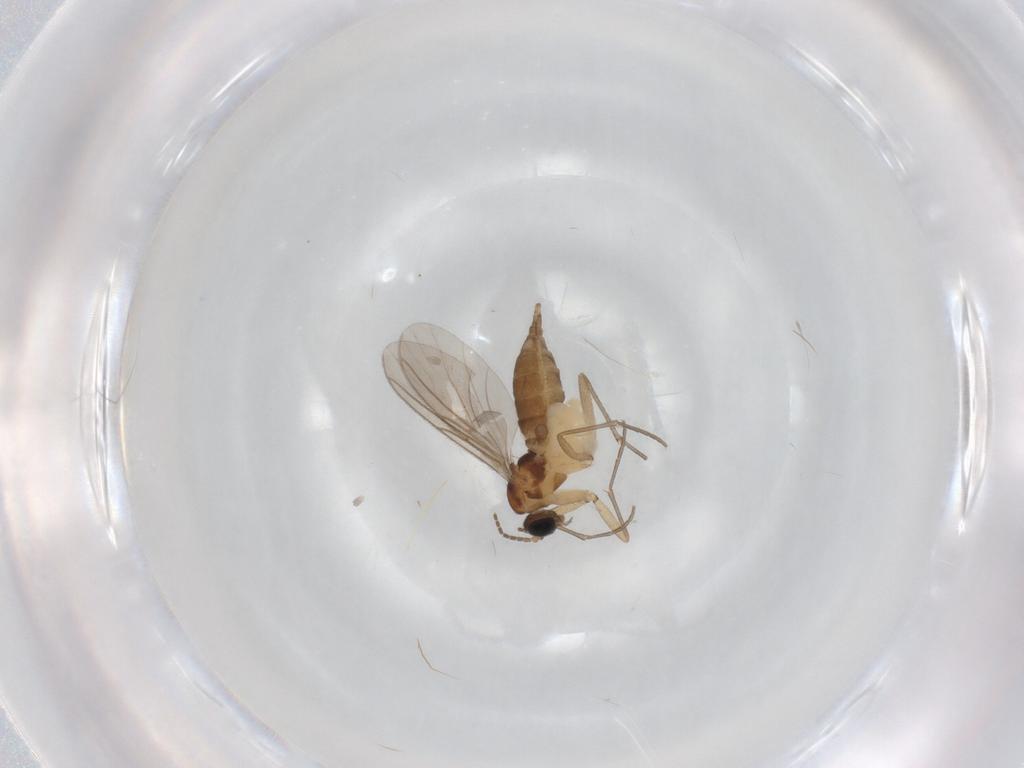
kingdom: Animalia
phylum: Arthropoda
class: Insecta
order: Diptera
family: Sciaridae
